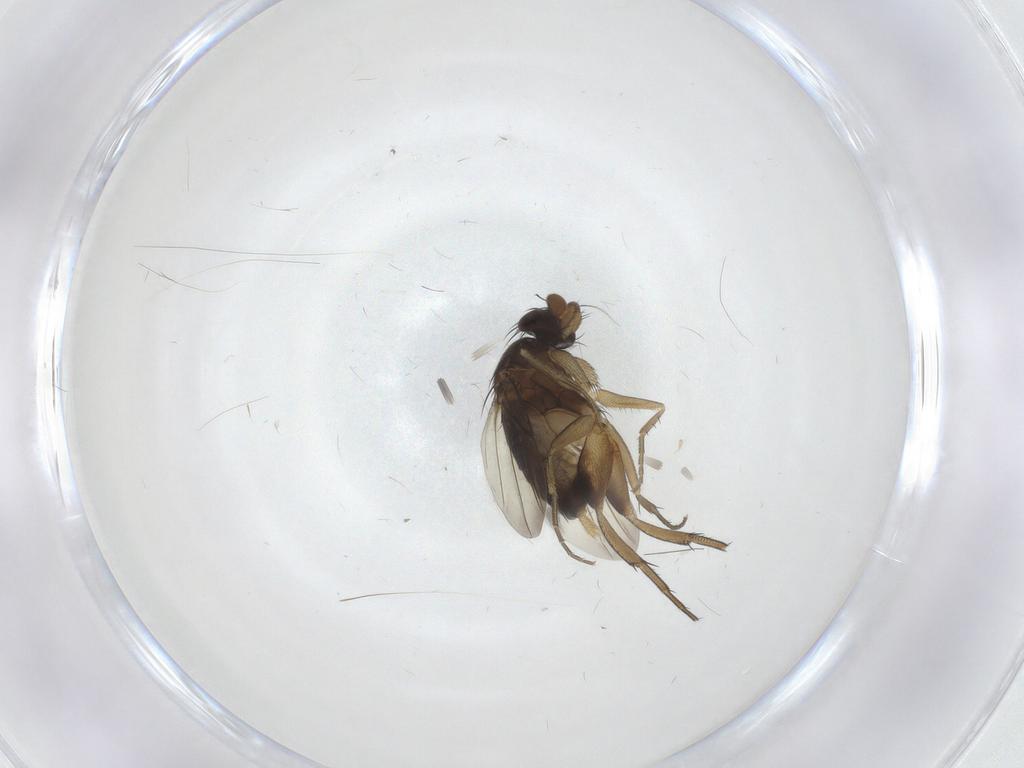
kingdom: Animalia
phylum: Arthropoda
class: Insecta
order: Diptera
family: Phoridae
